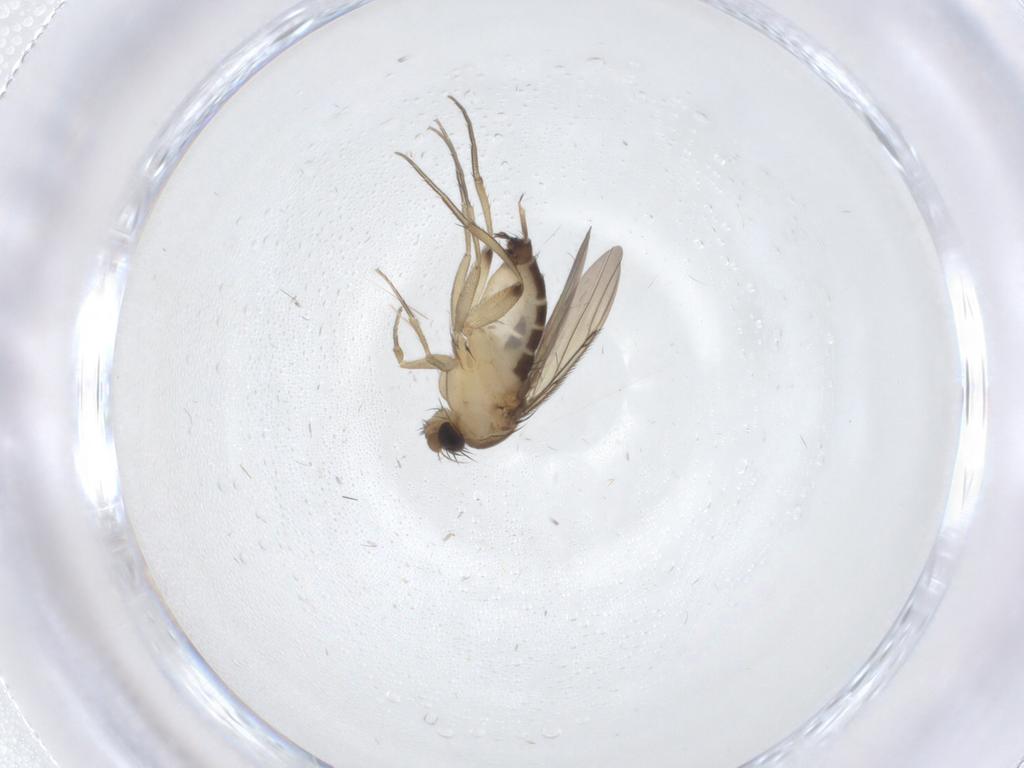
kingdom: Animalia
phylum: Arthropoda
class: Insecta
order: Diptera
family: Phoridae
